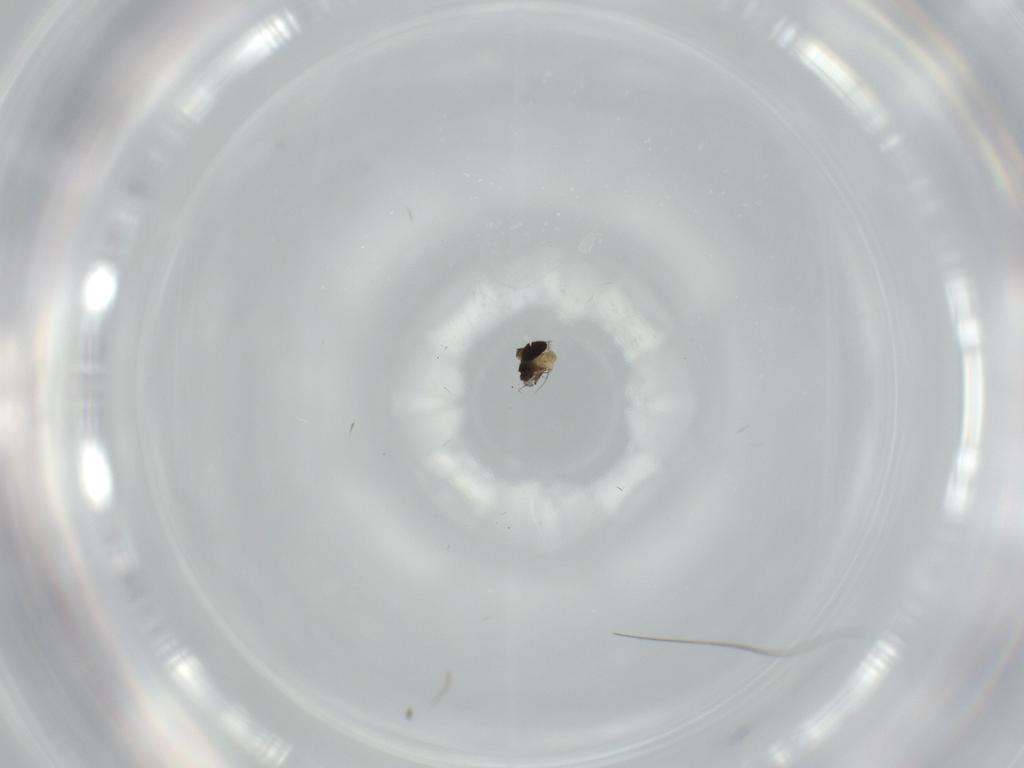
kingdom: Animalia
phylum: Arthropoda
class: Insecta
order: Diptera
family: Phoridae
